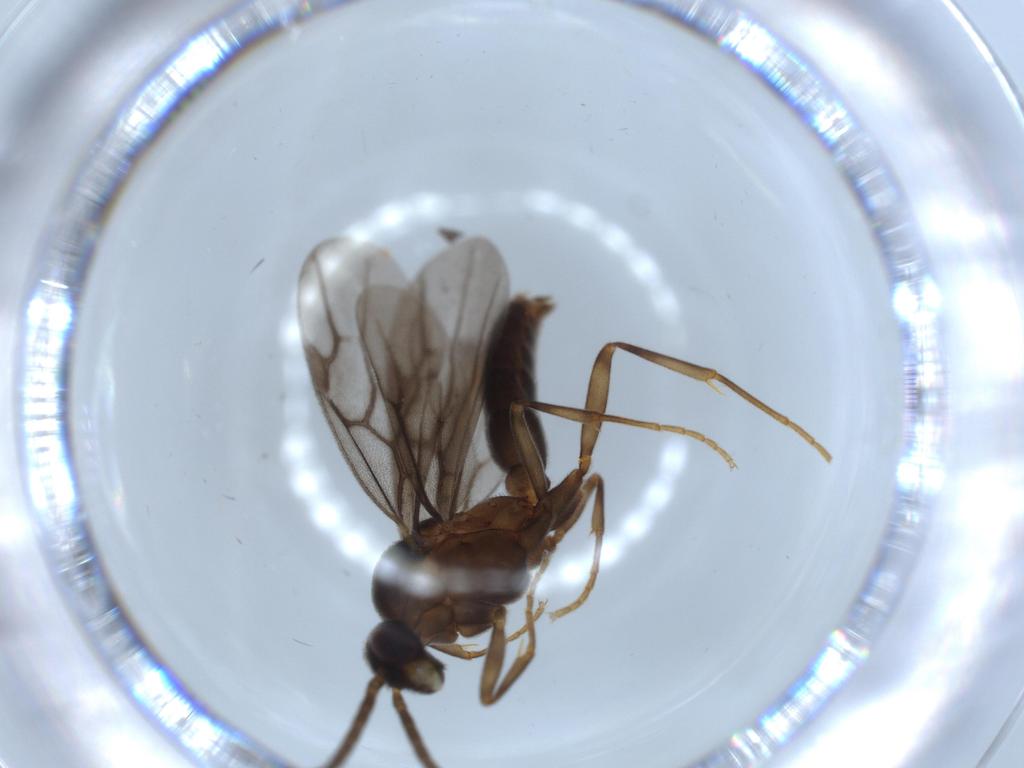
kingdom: Animalia
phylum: Arthropoda
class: Insecta
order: Hymenoptera
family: Formicidae
